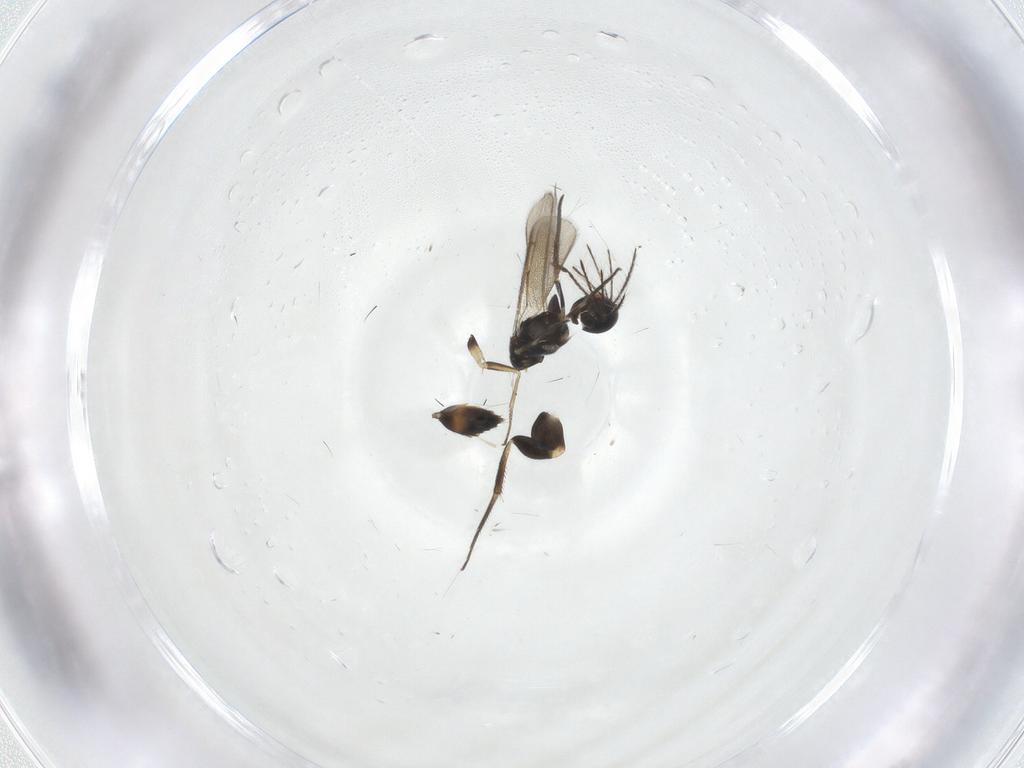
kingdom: Animalia
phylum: Arthropoda
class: Insecta
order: Hymenoptera
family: Eulophidae
